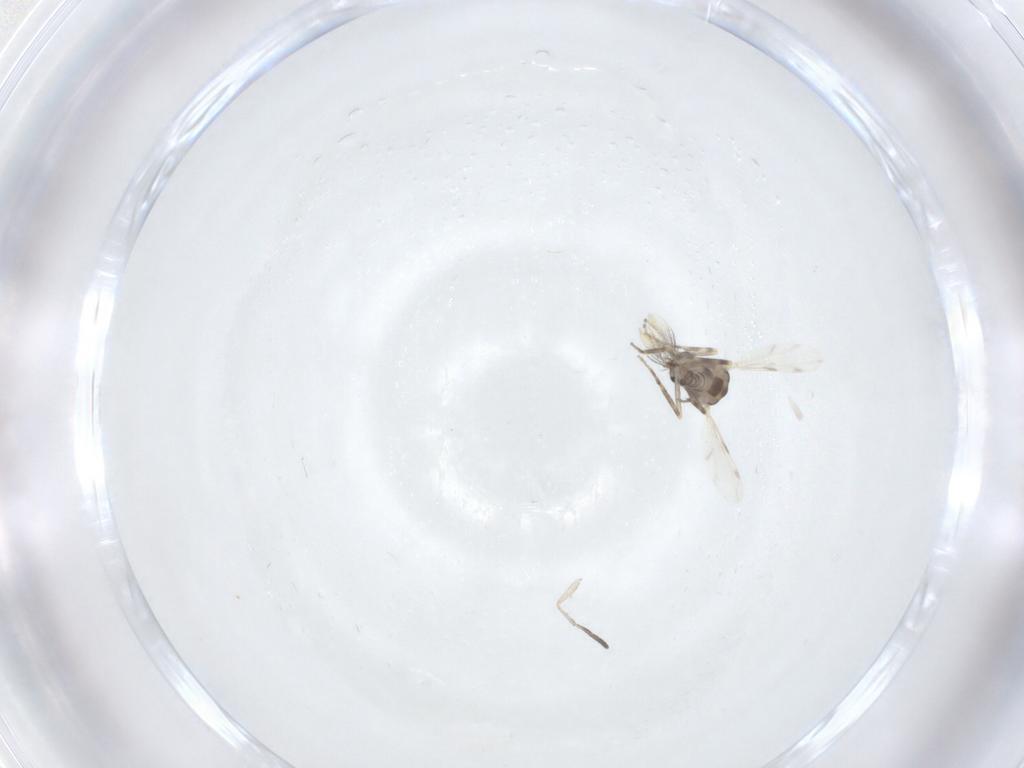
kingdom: Animalia
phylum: Arthropoda
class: Insecta
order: Diptera
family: Ceratopogonidae
